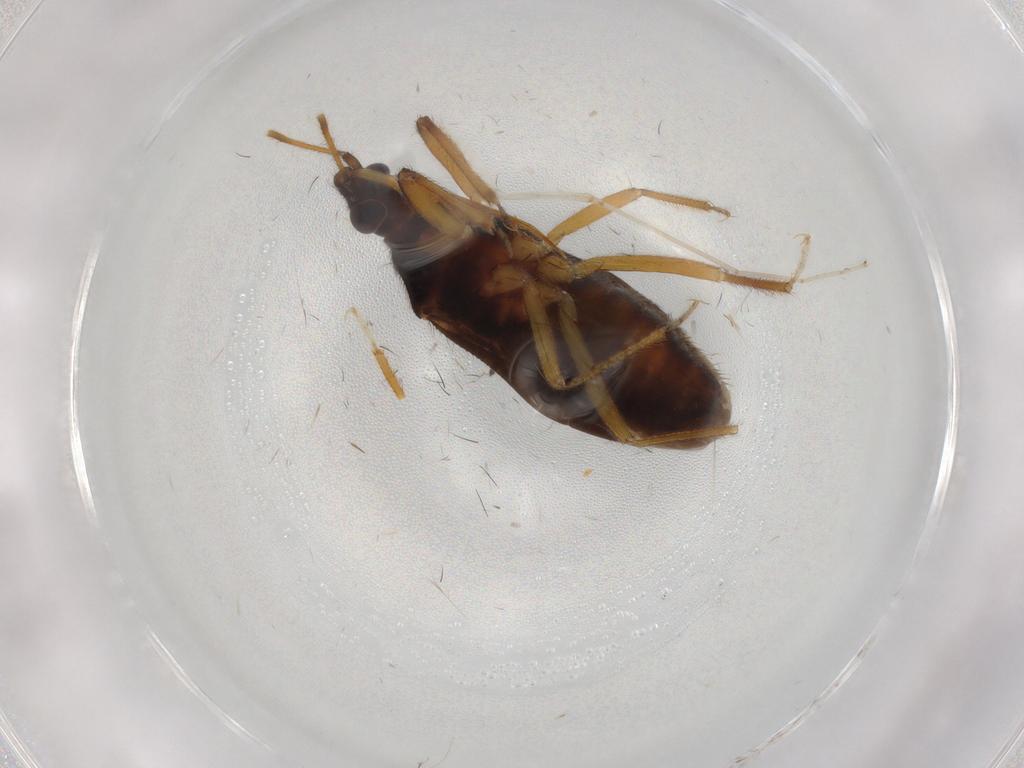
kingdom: Animalia
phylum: Arthropoda
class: Insecta
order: Hemiptera
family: Anthocoridae
